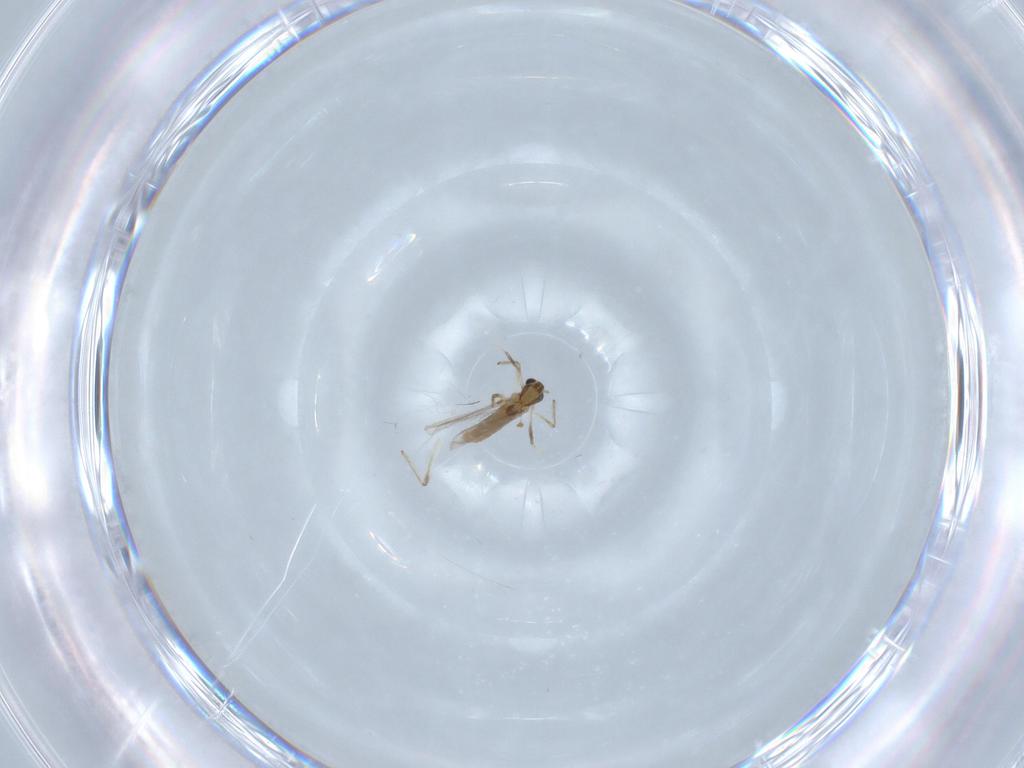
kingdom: Animalia
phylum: Arthropoda
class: Insecta
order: Diptera
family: Chironomidae
